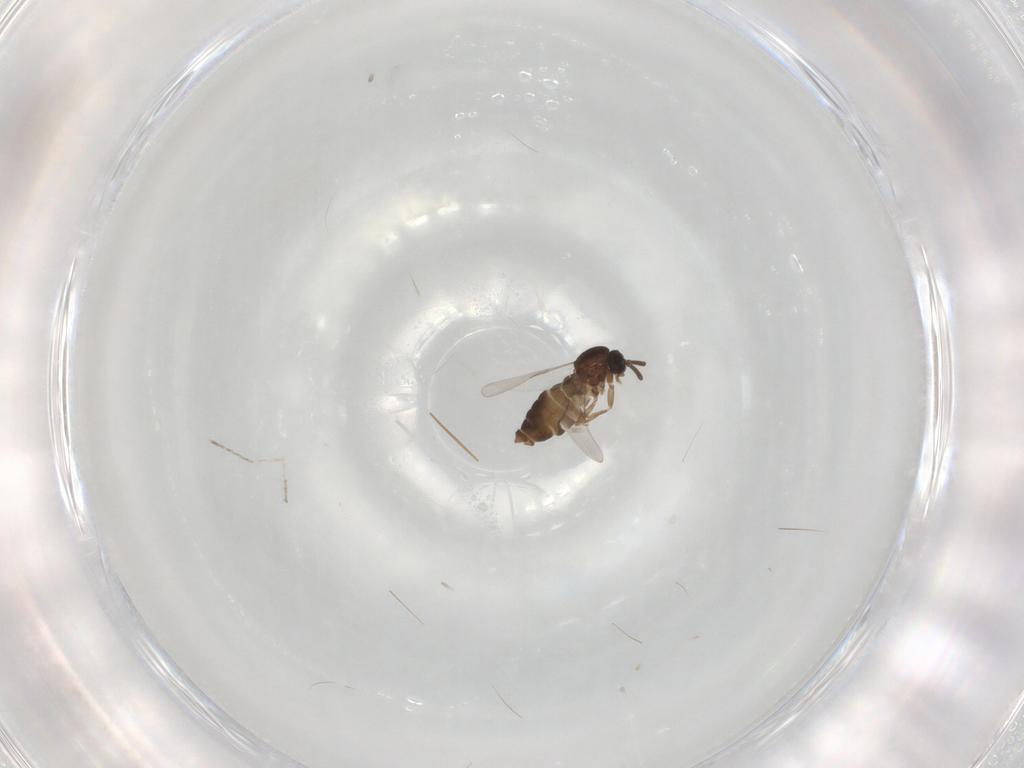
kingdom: Animalia
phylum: Arthropoda
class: Insecta
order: Diptera
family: Scatopsidae
